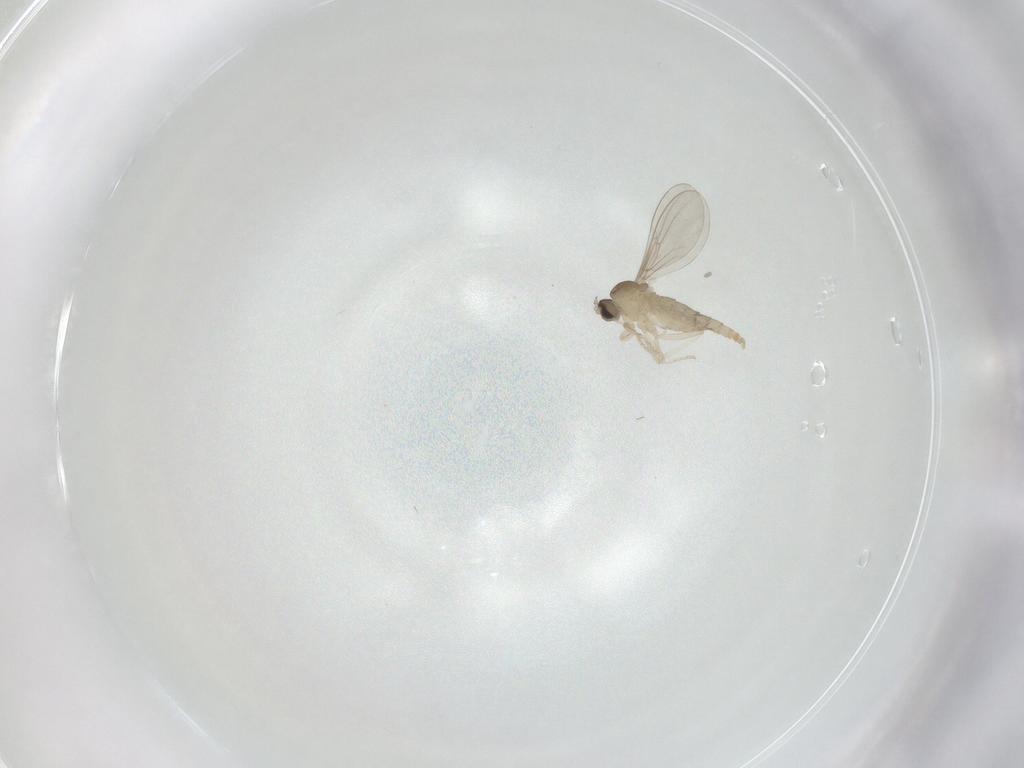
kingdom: Animalia
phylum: Arthropoda
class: Insecta
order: Diptera
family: Cecidomyiidae
